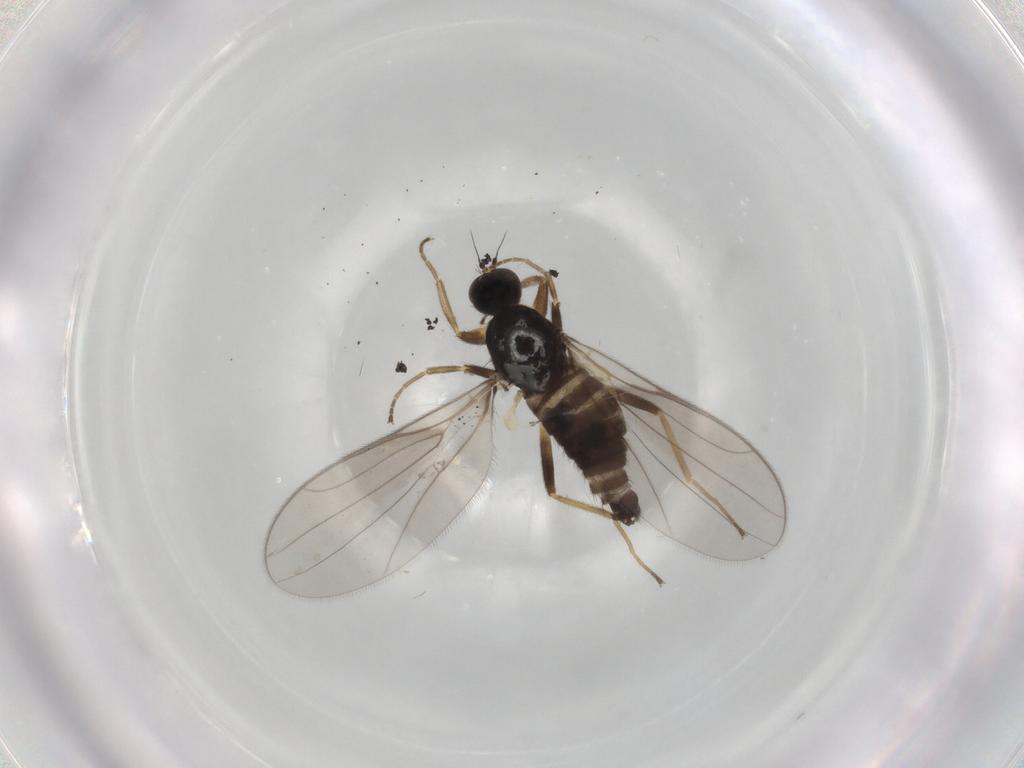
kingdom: Animalia
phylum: Arthropoda
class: Insecta
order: Diptera
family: Hybotidae
